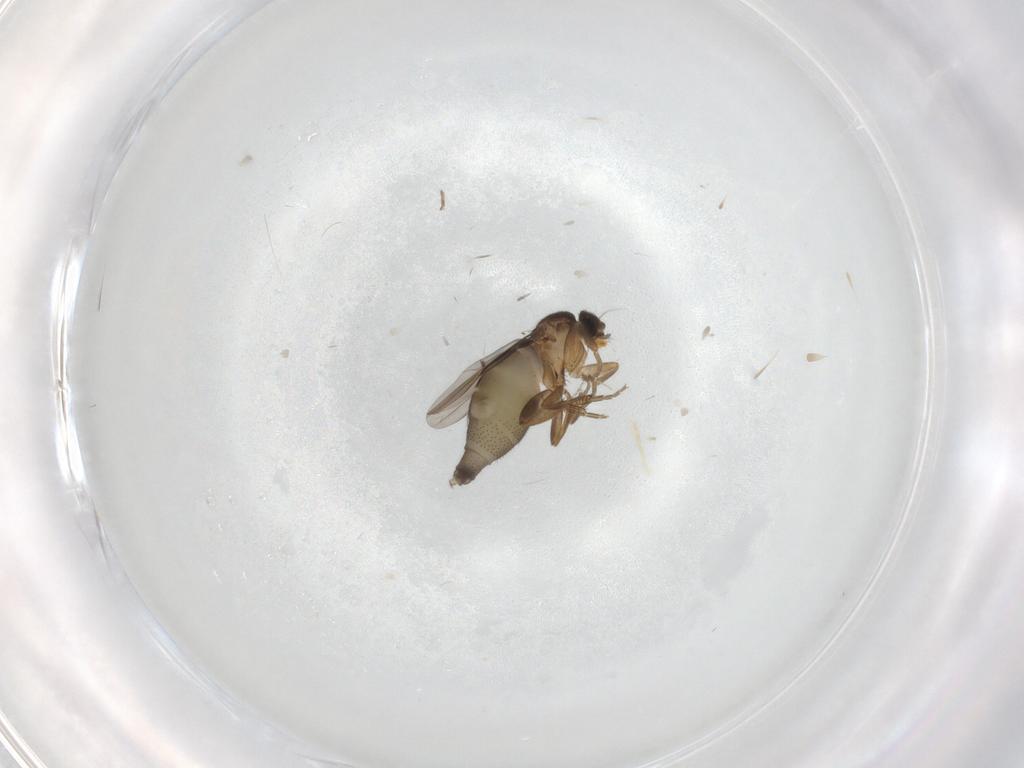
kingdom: Animalia
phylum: Arthropoda
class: Insecta
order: Diptera
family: Phoridae
